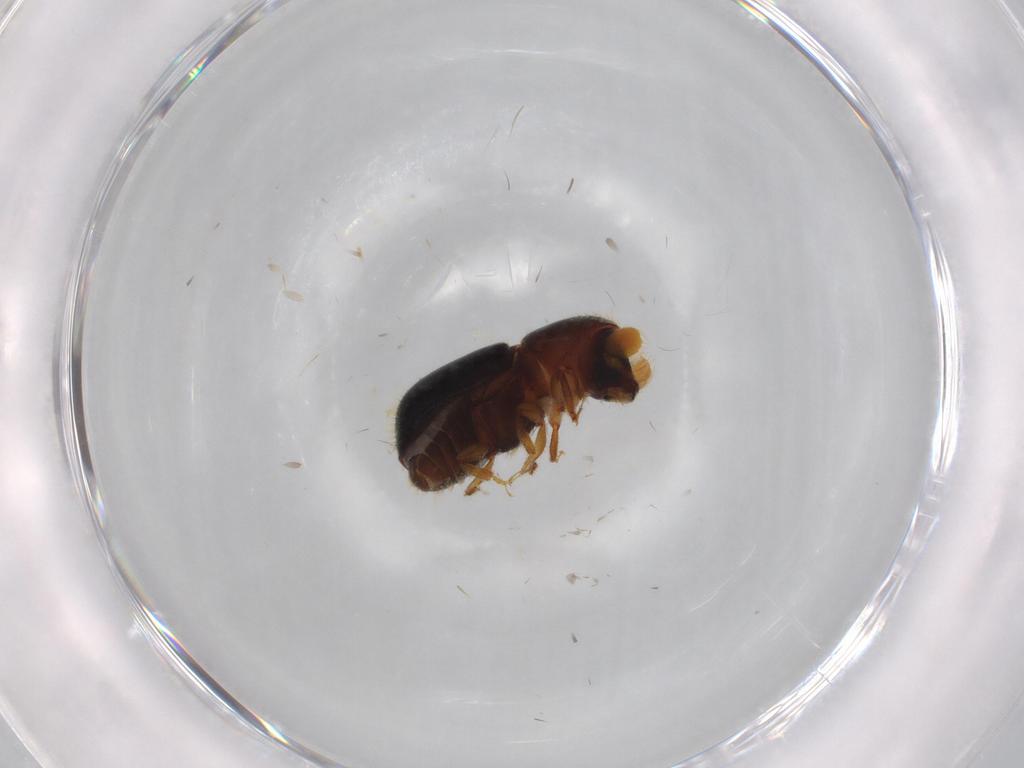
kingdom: Animalia
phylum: Arthropoda
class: Insecta
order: Coleoptera
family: Curculionidae
